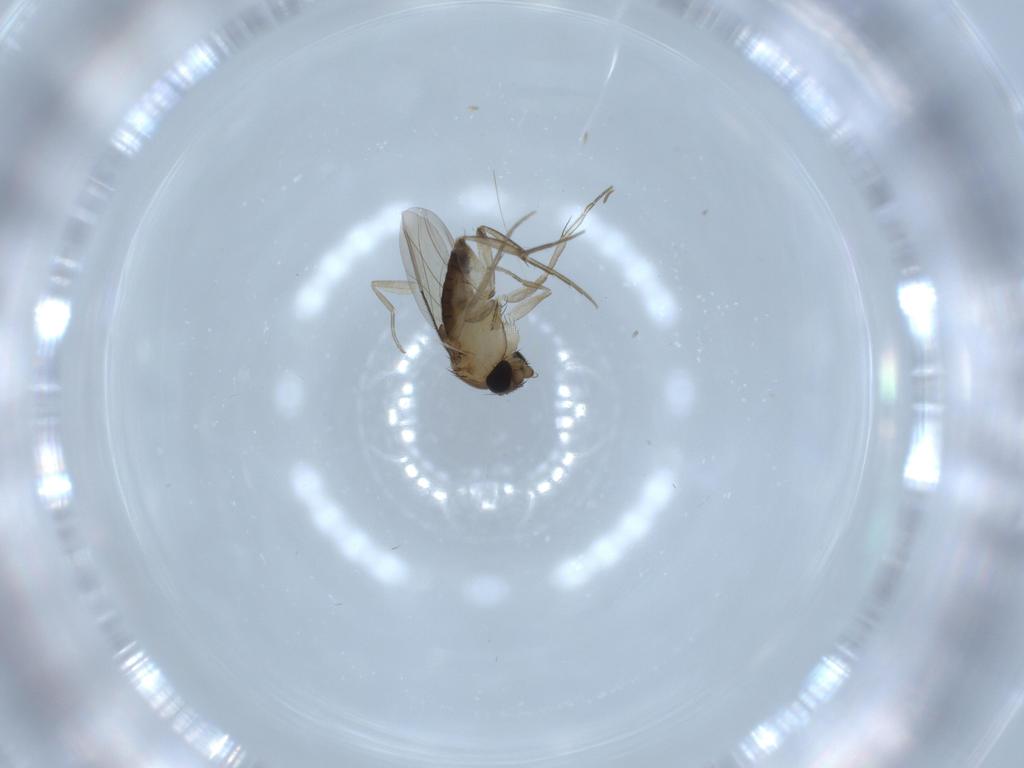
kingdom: Animalia
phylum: Arthropoda
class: Insecta
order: Diptera
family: Phoridae
